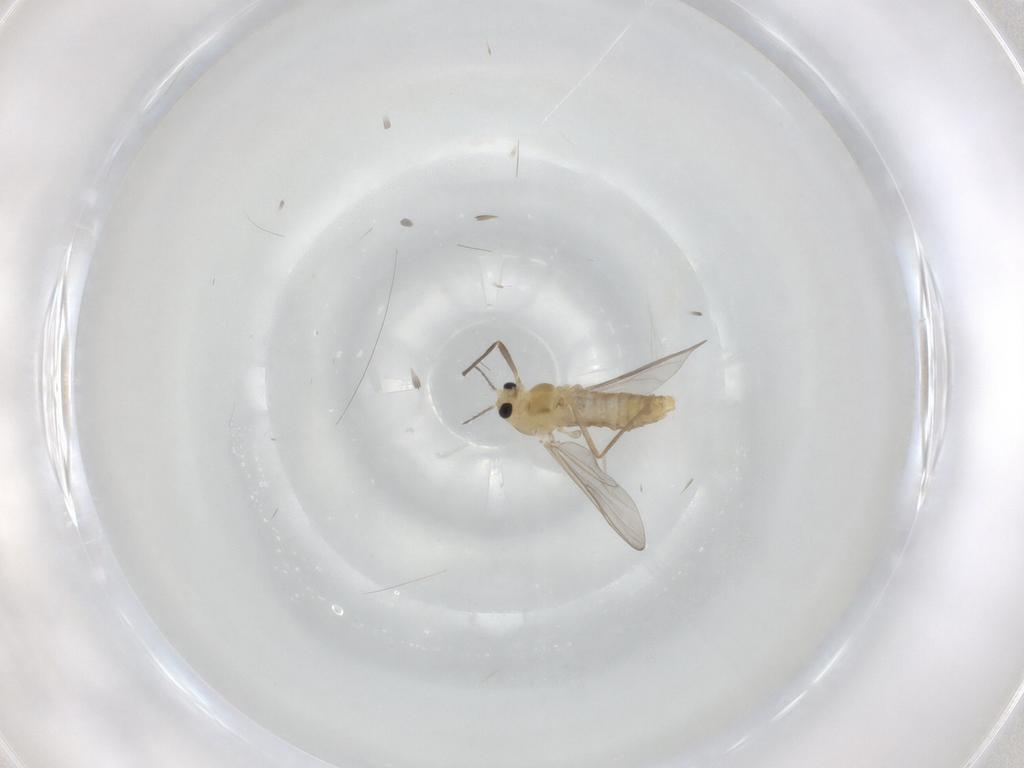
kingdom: Animalia
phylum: Arthropoda
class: Insecta
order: Diptera
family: Chironomidae
